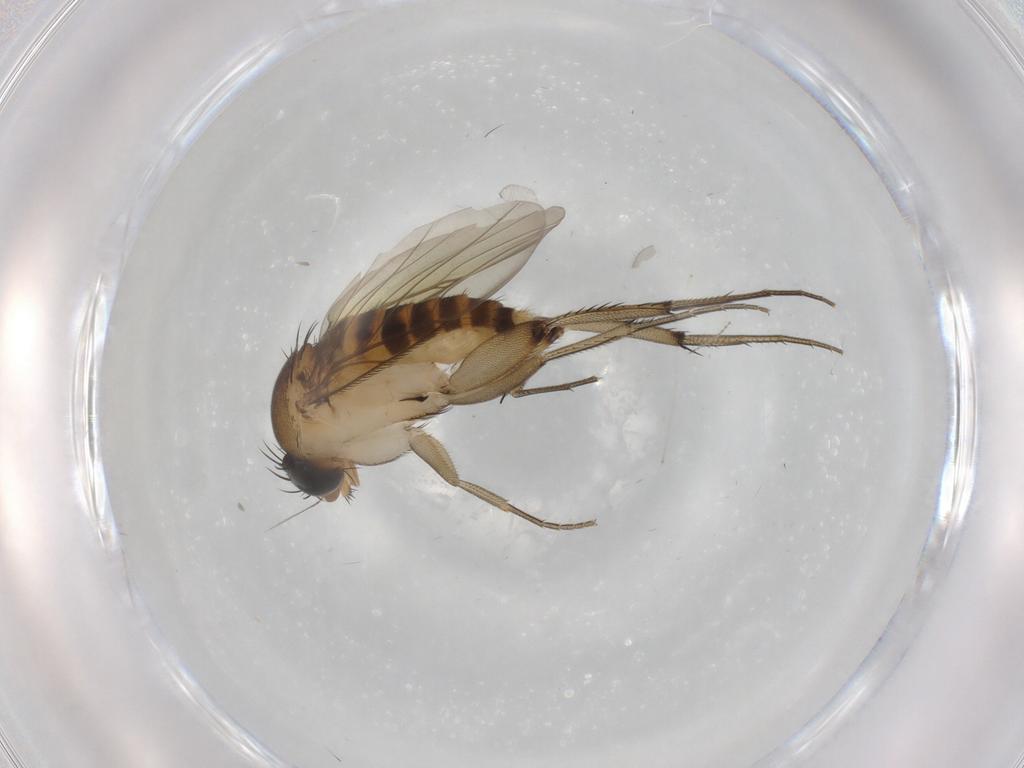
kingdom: Animalia
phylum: Arthropoda
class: Insecta
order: Diptera
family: Phoridae
